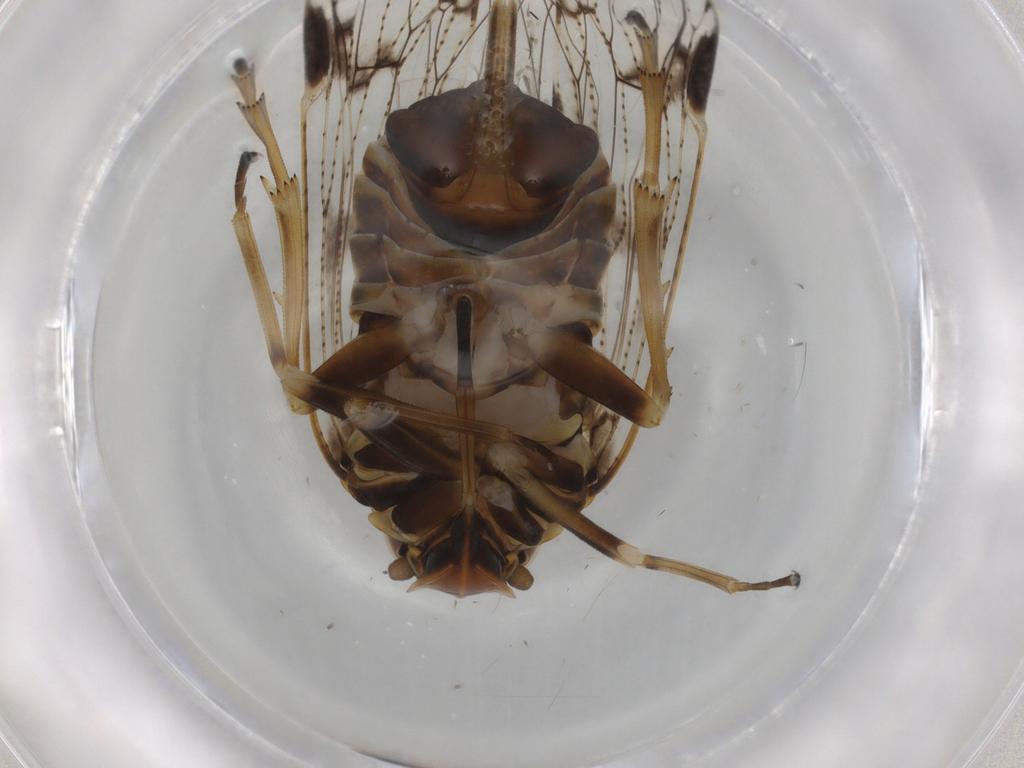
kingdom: Animalia
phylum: Arthropoda
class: Insecta
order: Hemiptera
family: Cixiidae
